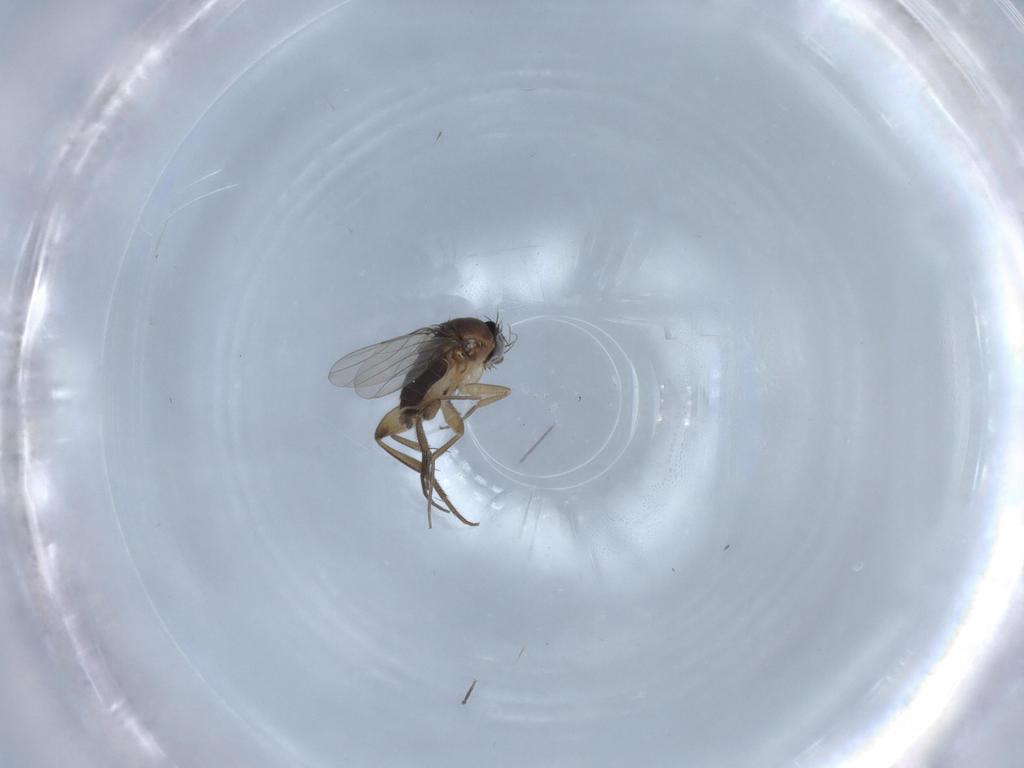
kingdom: Animalia
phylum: Arthropoda
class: Insecta
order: Diptera
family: Phoridae
